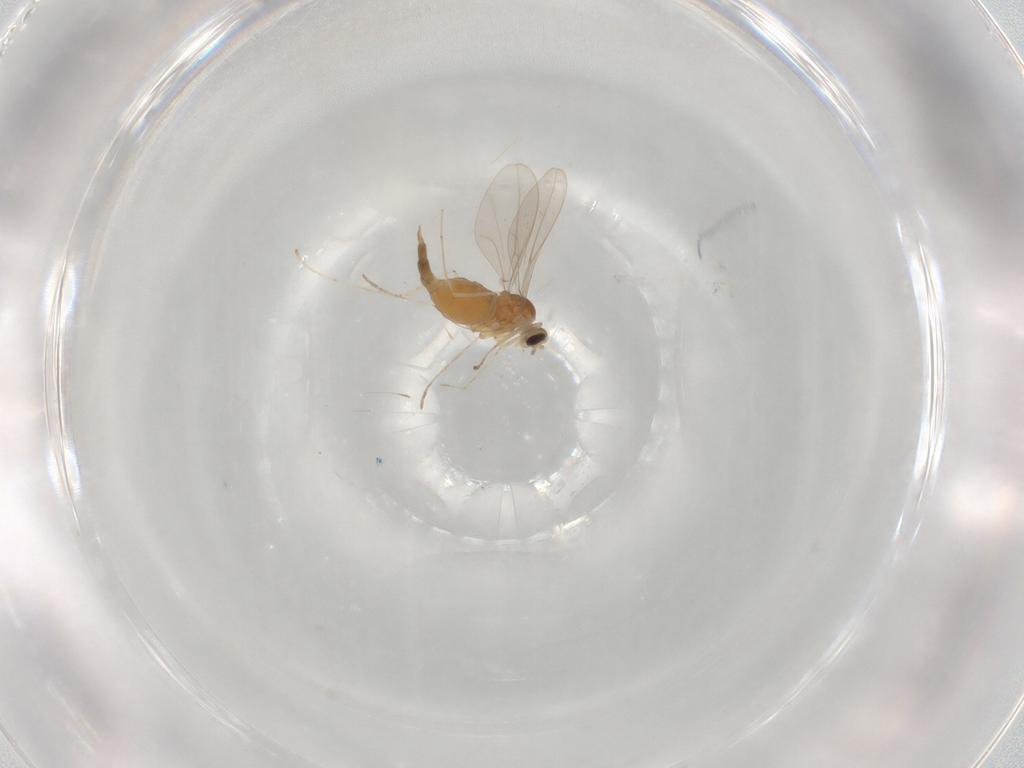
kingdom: Animalia
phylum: Arthropoda
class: Insecta
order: Diptera
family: Cecidomyiidae
